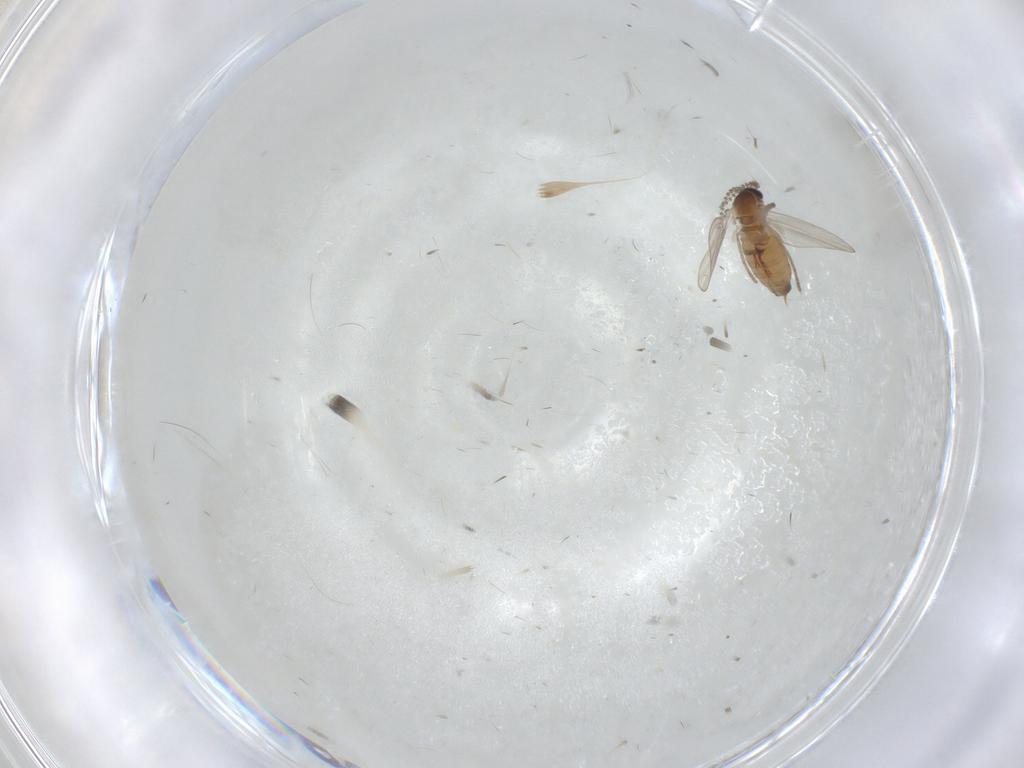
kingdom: Animalia
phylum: Arthropoda
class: Insecta
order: Diptera
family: Psychodidae
